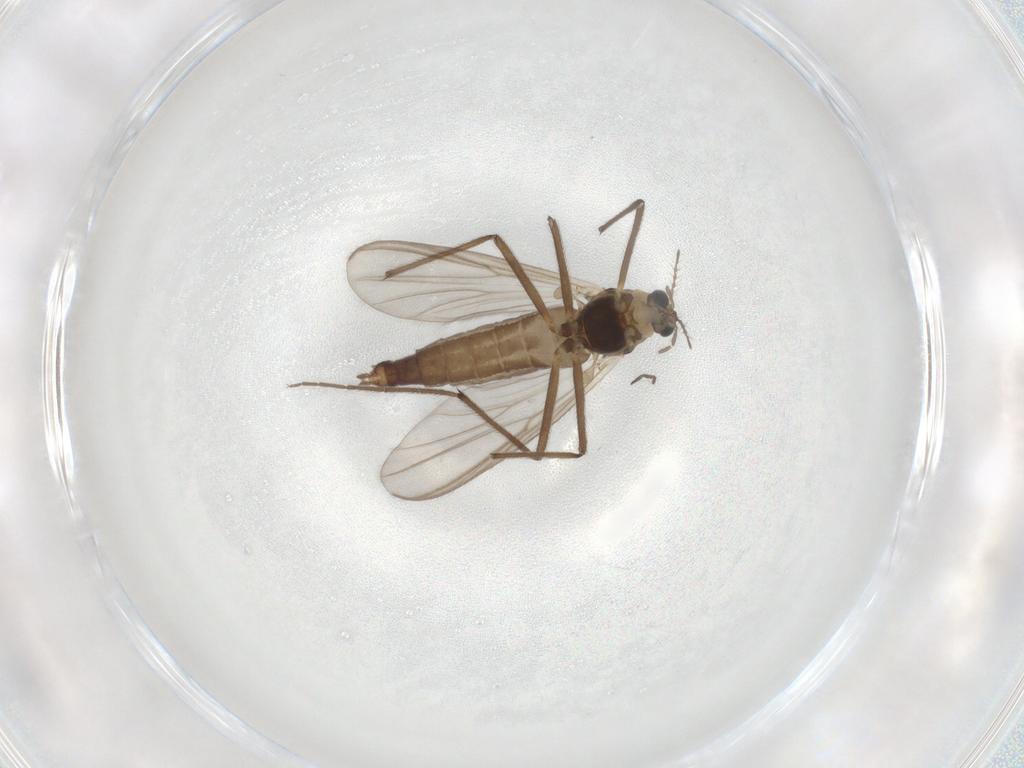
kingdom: Animalia
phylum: Arthropoda
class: Insecta
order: Diptera
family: Chironomidae
